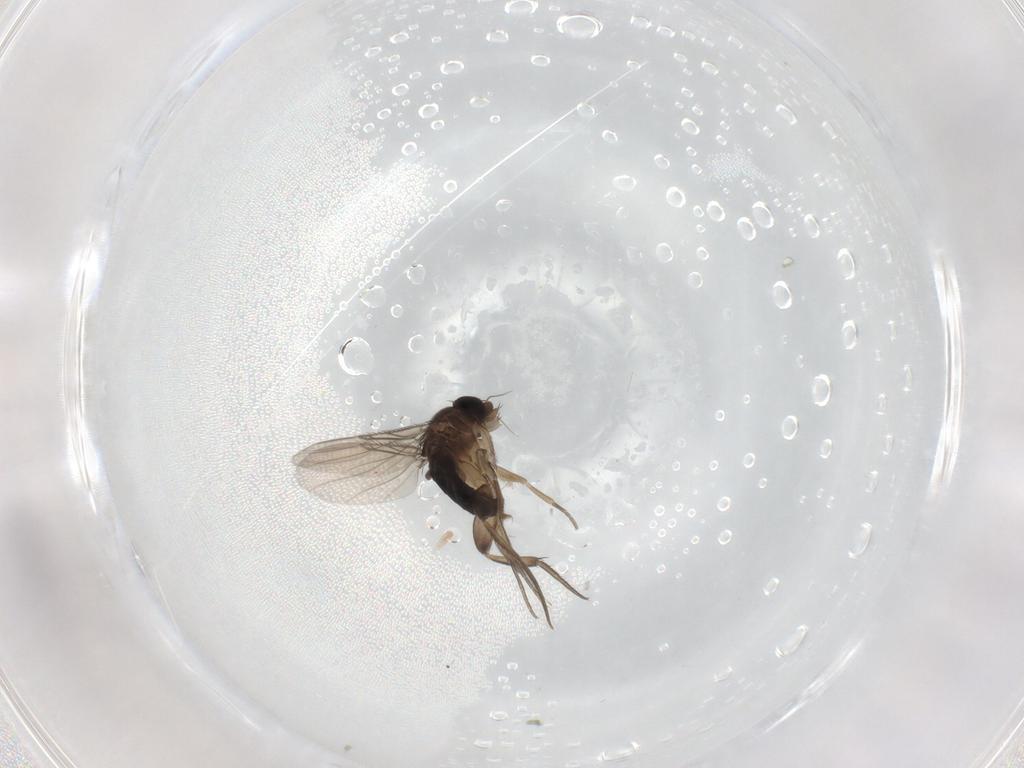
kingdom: Animalia
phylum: Arthropoda
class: Insecta
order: Diptera
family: Phoridae
